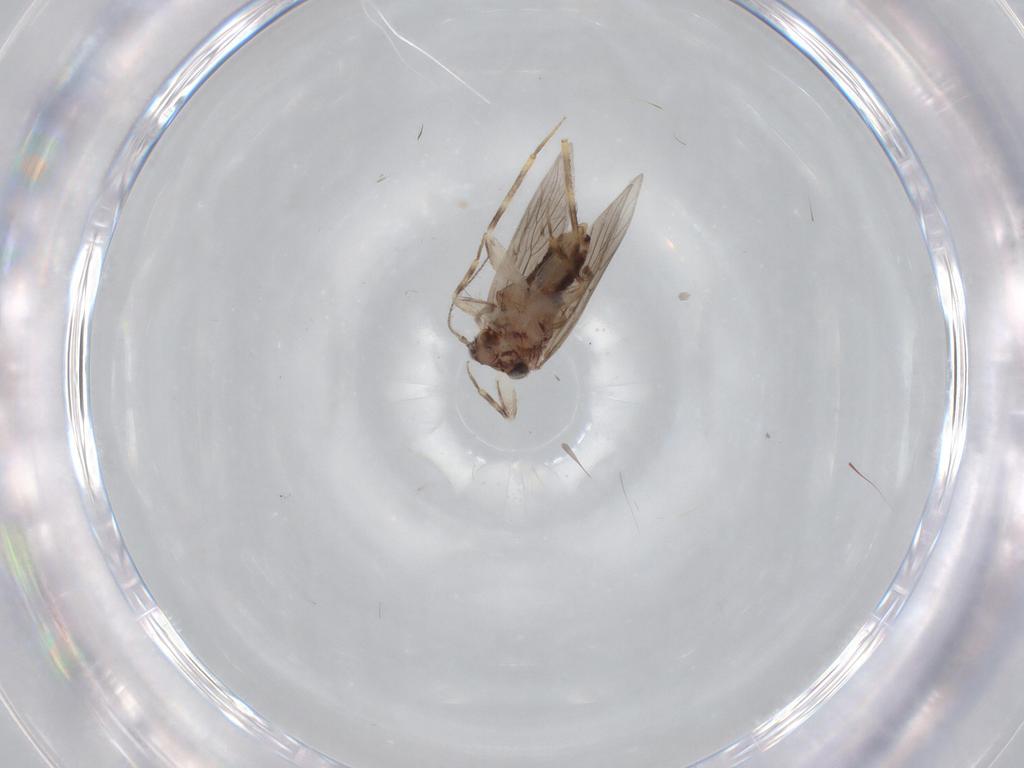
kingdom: Animalia
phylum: Arthropoda
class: Insecta
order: Psocodea
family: Lepidopsocidae
